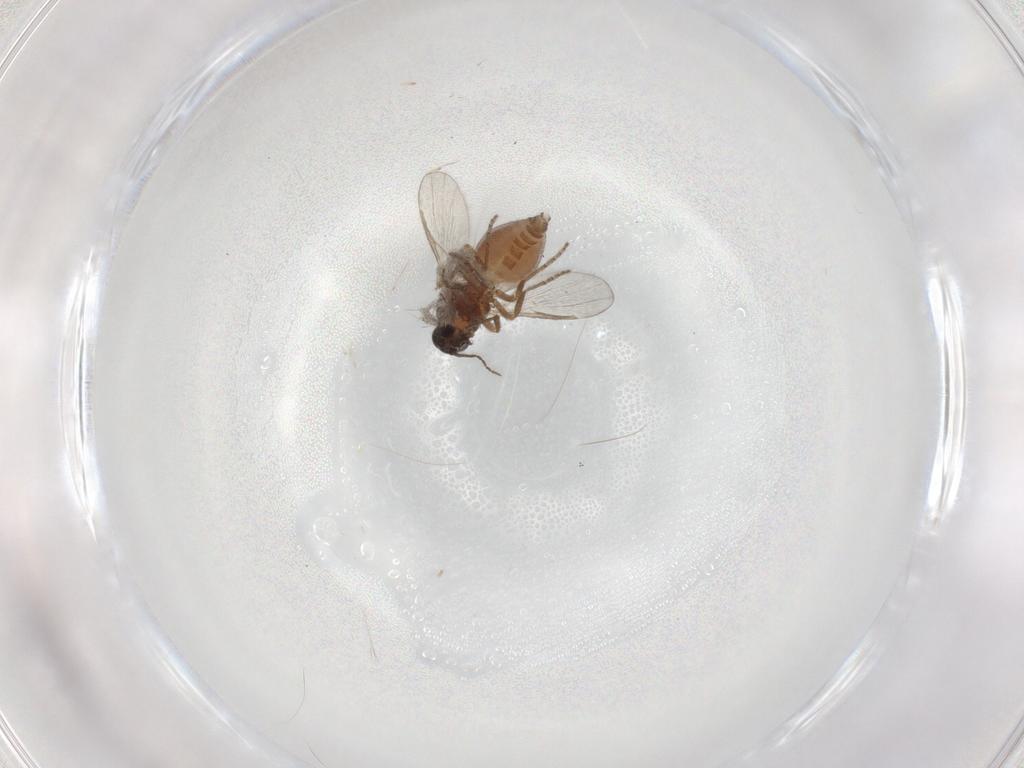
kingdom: Animalia
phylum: Arthropoda
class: Insecta
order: Diptera
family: Ceratopogonidae
